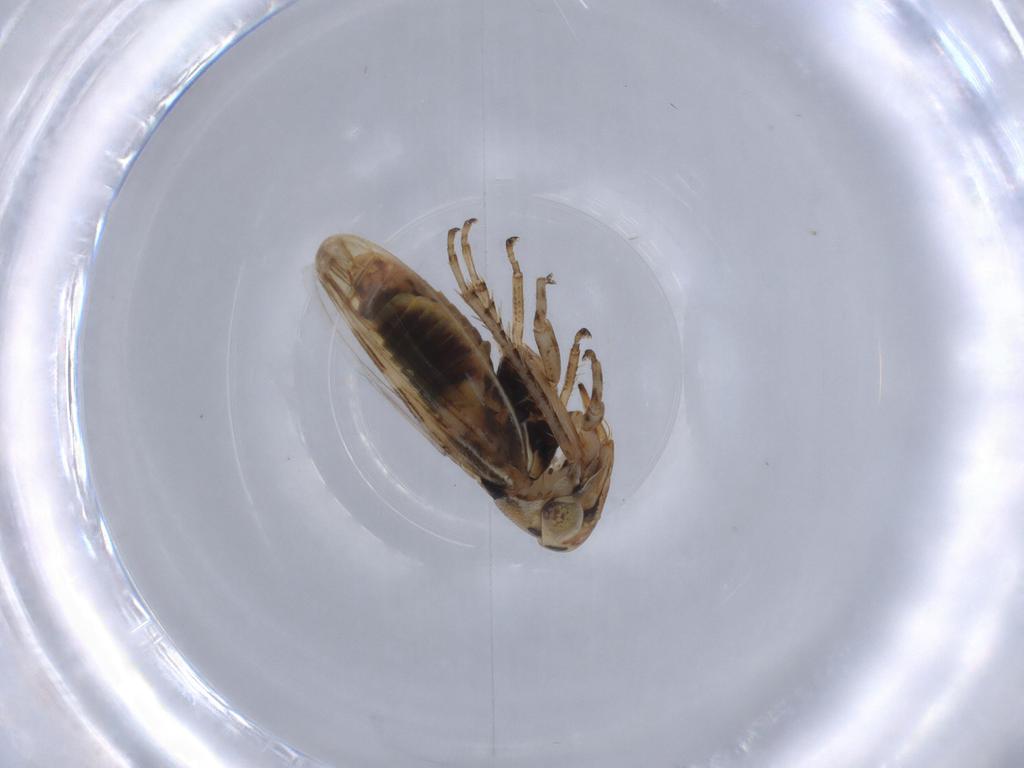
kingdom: Animalia
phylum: Arthropoda
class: Insecta
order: Hemiptera
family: Cicadellidae
